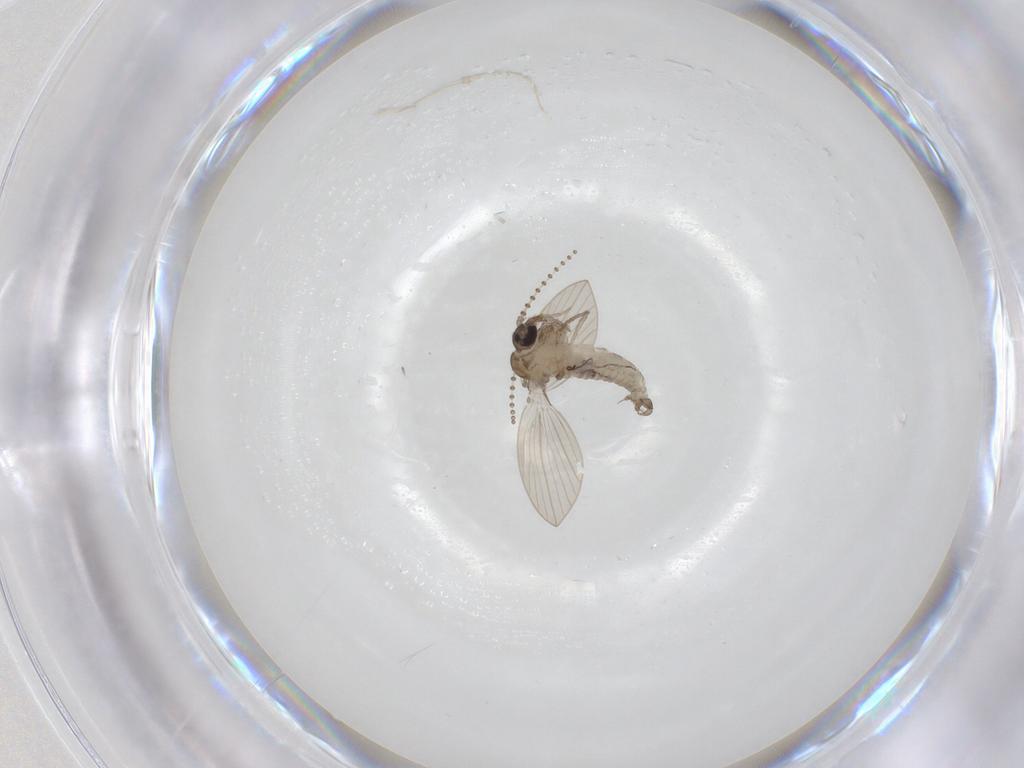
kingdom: Animalia
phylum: Arthropoda
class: Insecta
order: Diptera
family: Psychodidae
